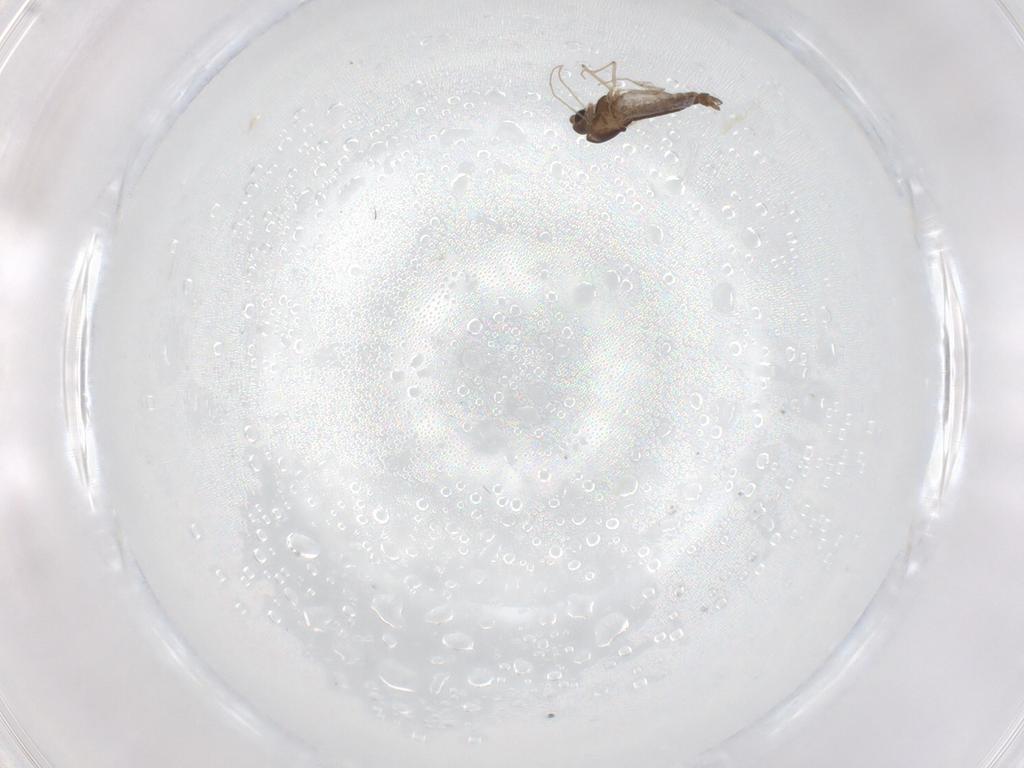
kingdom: Animalia
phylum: Arthropoda
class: Insecta
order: Diptera
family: Chironomidae
